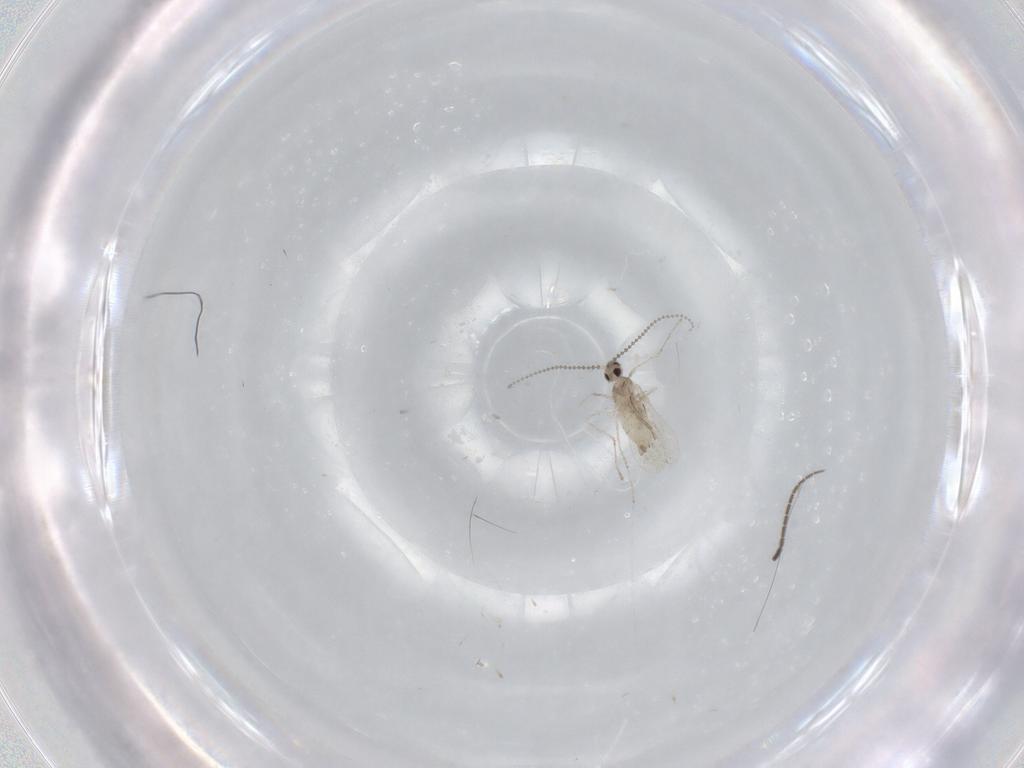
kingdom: Animalia
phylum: Arthropoda
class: Insecta
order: Diptera
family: Cecidomyiidae
